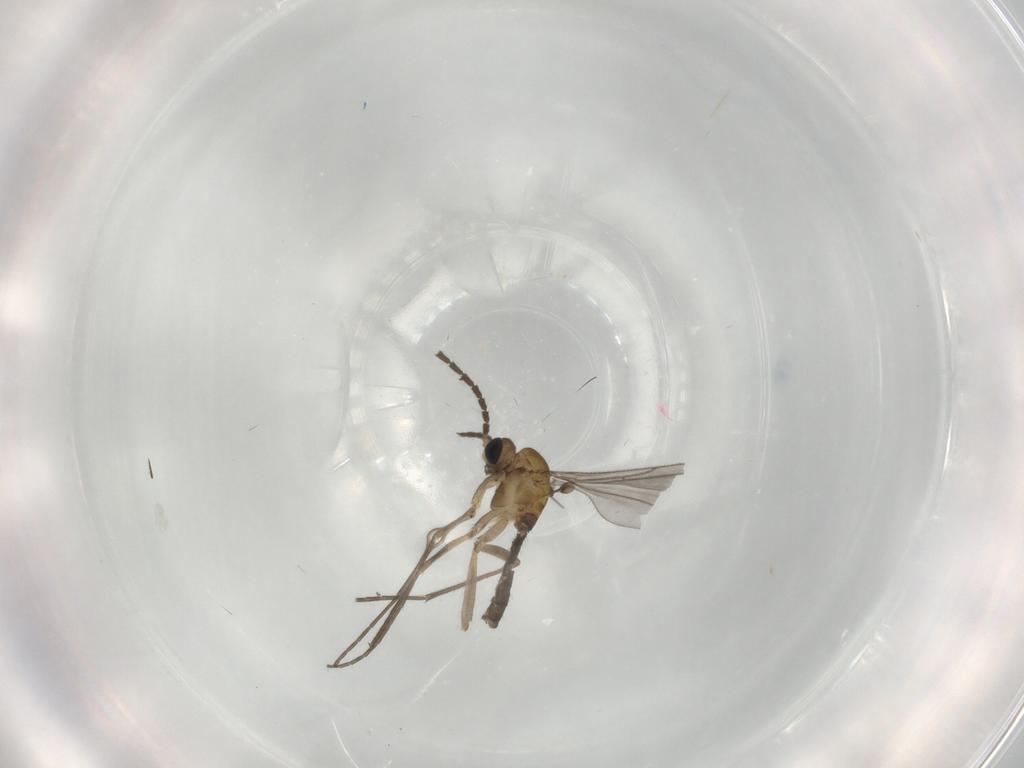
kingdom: Animalia
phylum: Arthropoda
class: Insecta
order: Diptera
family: Sciaridae
